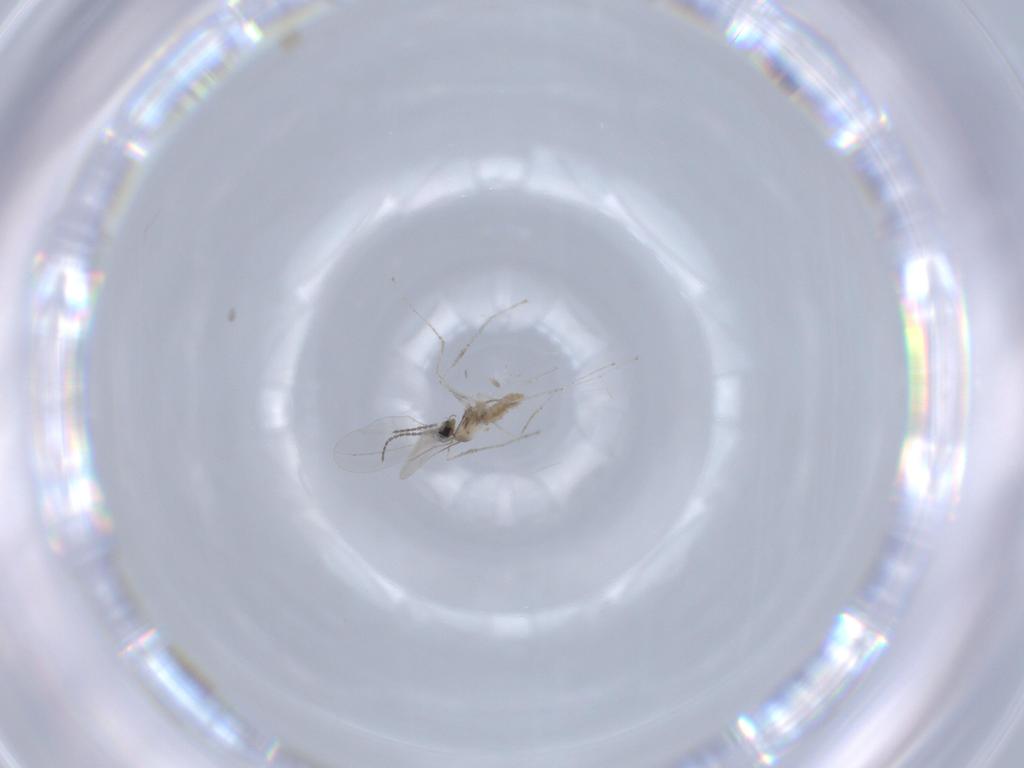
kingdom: Animalia
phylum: Arthropoda
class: Insecta
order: Diptera
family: Cecidomyiidae
